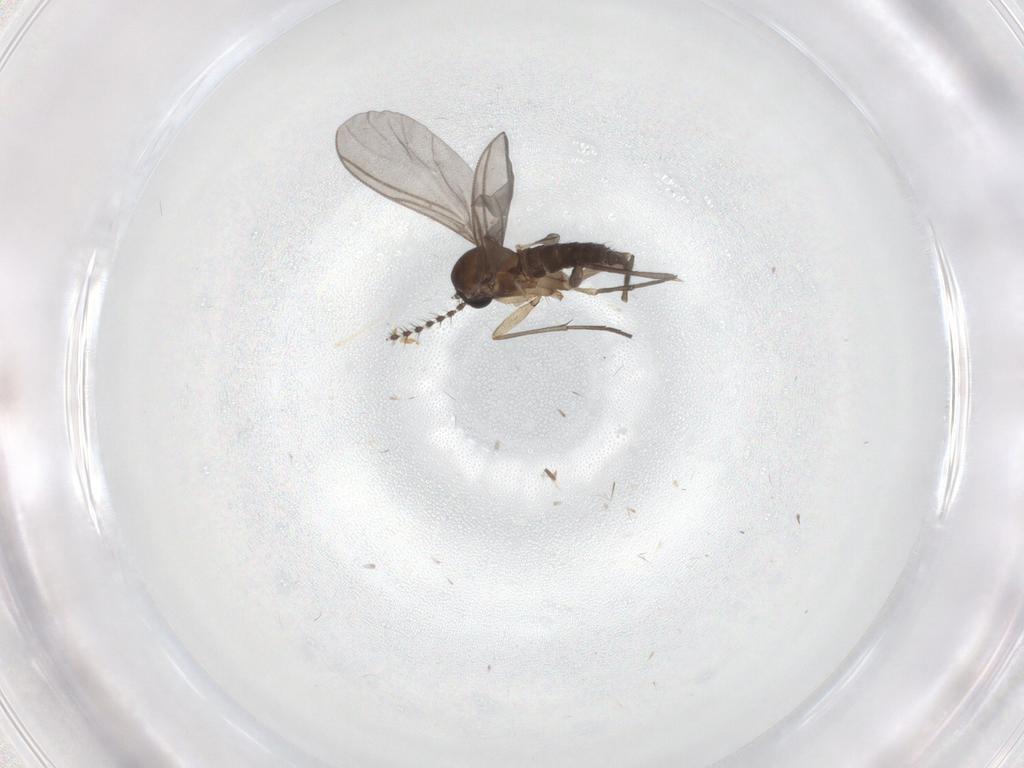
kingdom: Animalia
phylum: Arthropoda
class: Insecta
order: Diptera
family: Sciaridae
